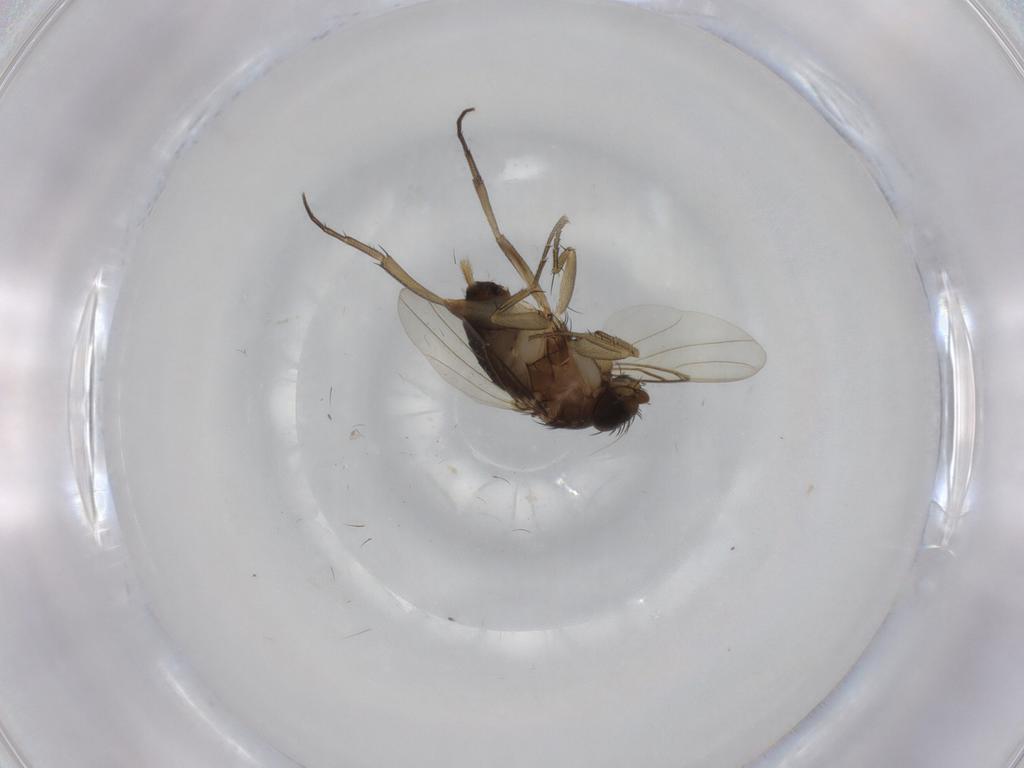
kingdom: Animalia
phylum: Arthropoda
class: Insecta
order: Diptera
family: Phoridae
